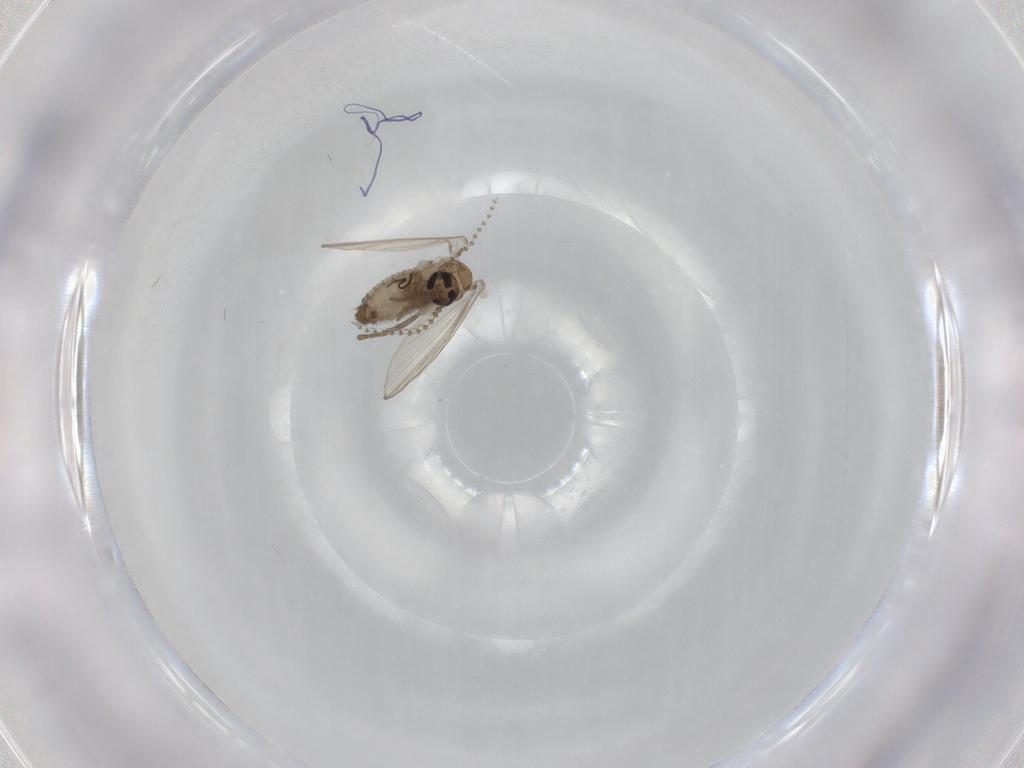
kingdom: Animalia
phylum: Arthropoda
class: Insecta
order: Diptera
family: Psychodidae
